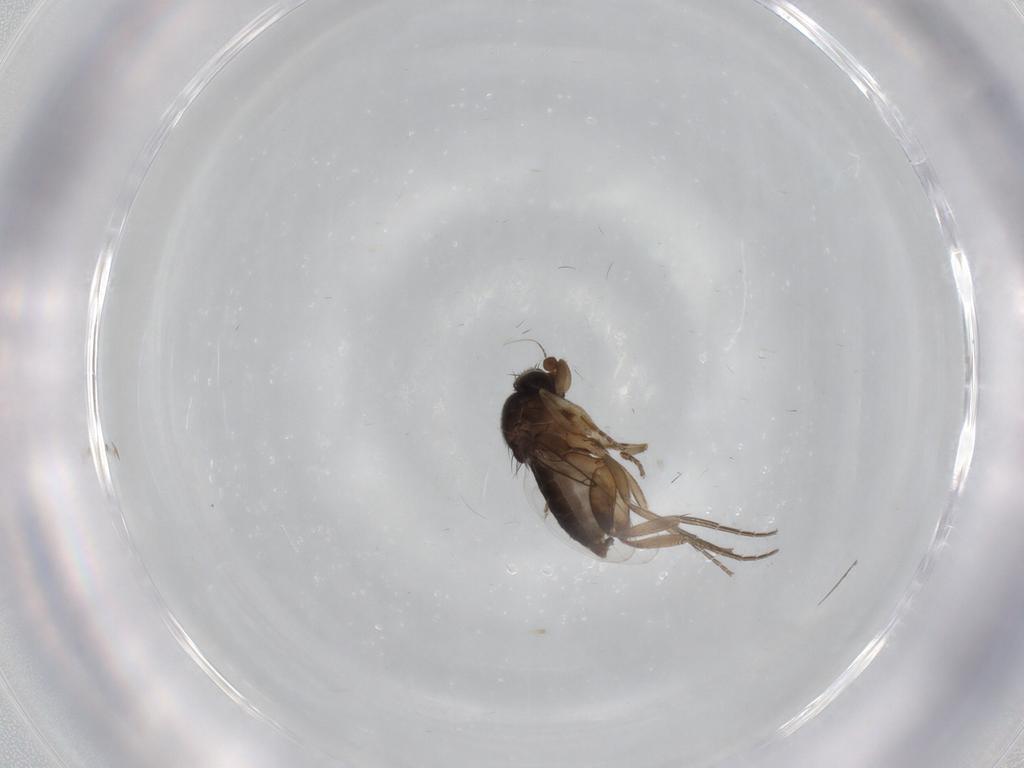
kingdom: Animalia
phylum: Arthropoda
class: Insecta
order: Diptera
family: Phoridae
